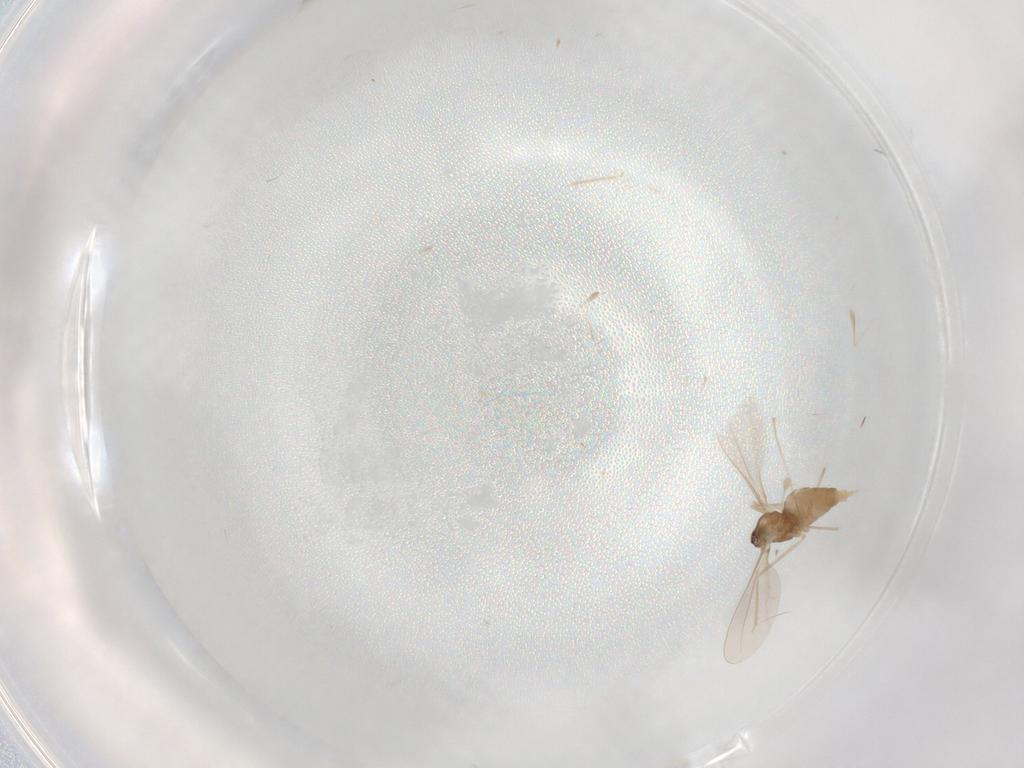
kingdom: Animalia
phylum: Arthropoda
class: Insecta
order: Diptera
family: Cecidomyiidae
